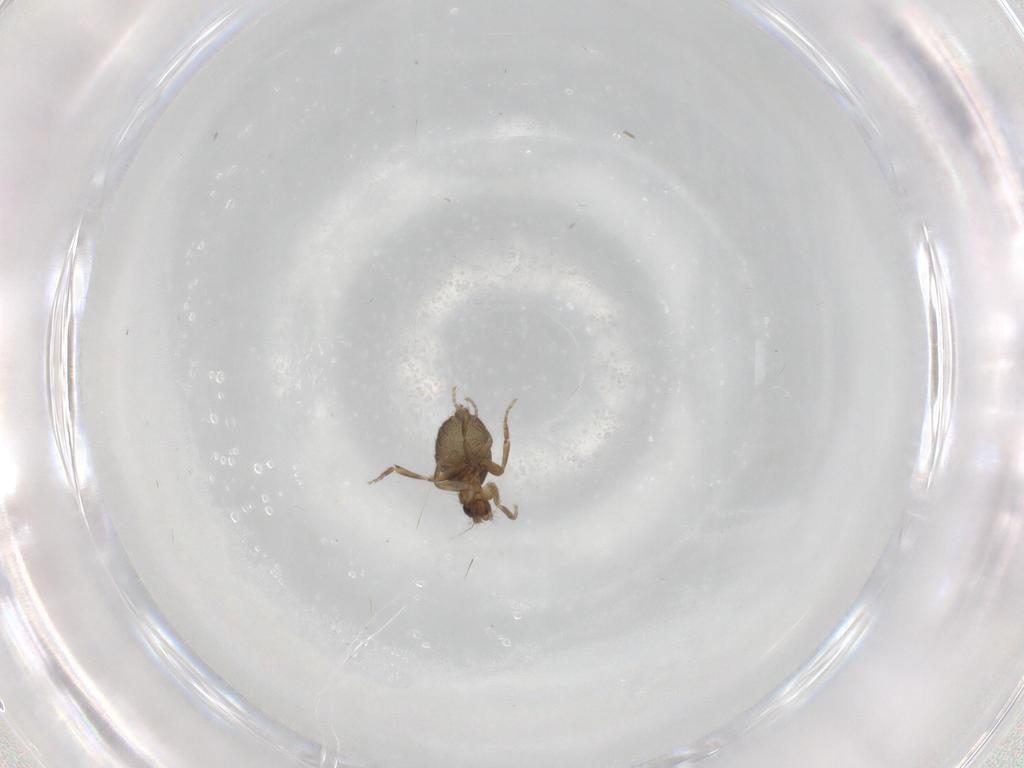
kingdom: Animalia
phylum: Arthropoda
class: Insecta
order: Diptera
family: Phoridae
